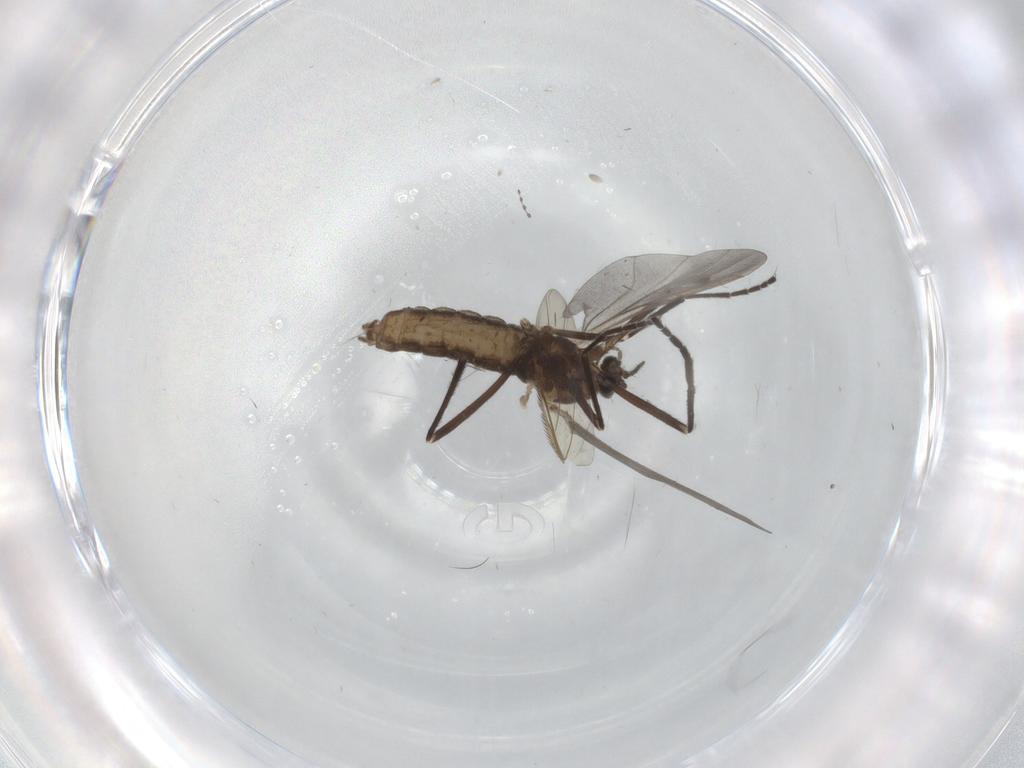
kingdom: Animalia
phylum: Arthropoda
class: Insecta
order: Diptera
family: Phoridae
